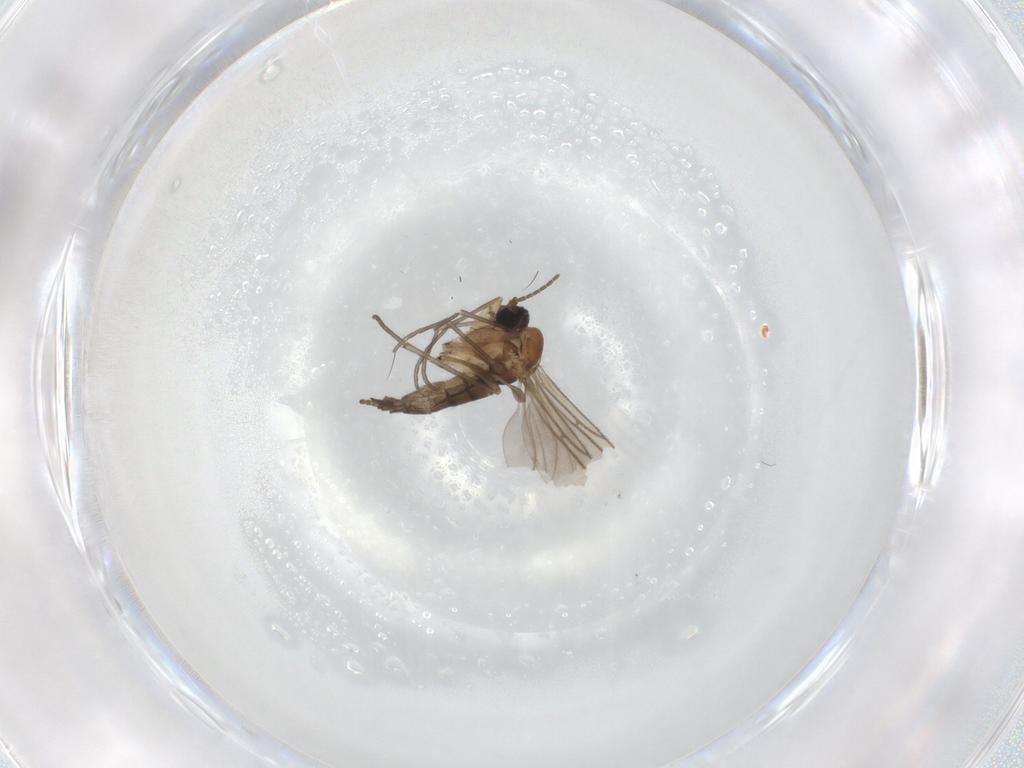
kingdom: Animalia
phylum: Arthropoda
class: Insecta
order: Diptera
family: Sciaridae
